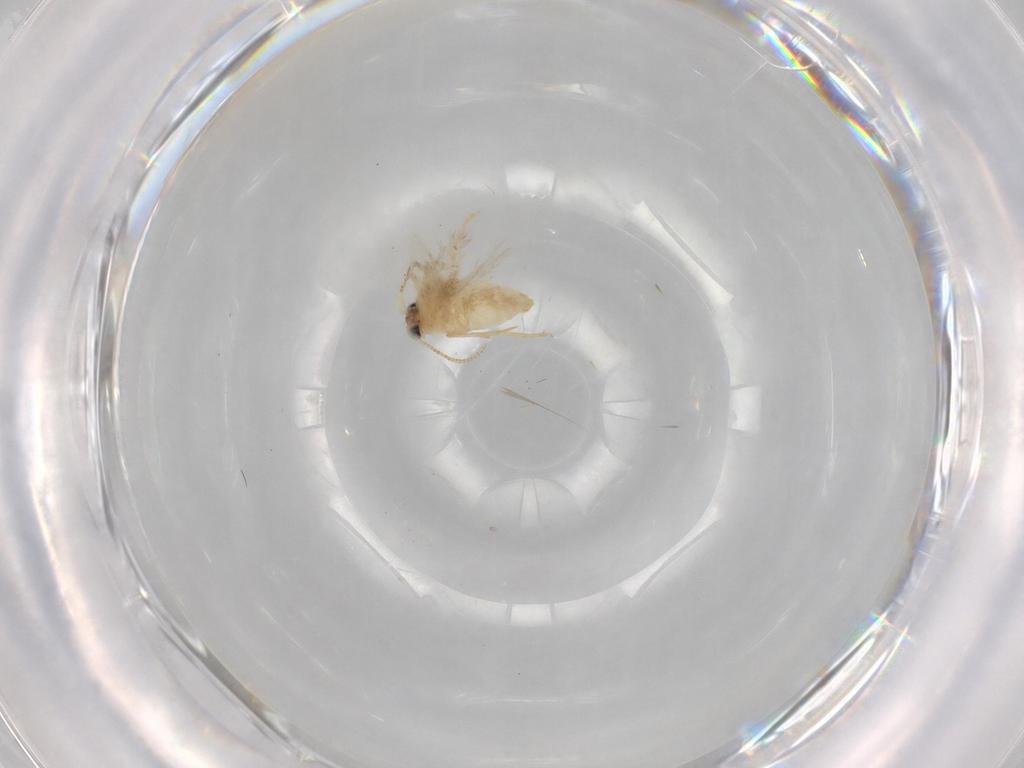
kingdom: Animalia
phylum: Arthropoda
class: Insecta
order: Lepidoptera
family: Nepticulidae
